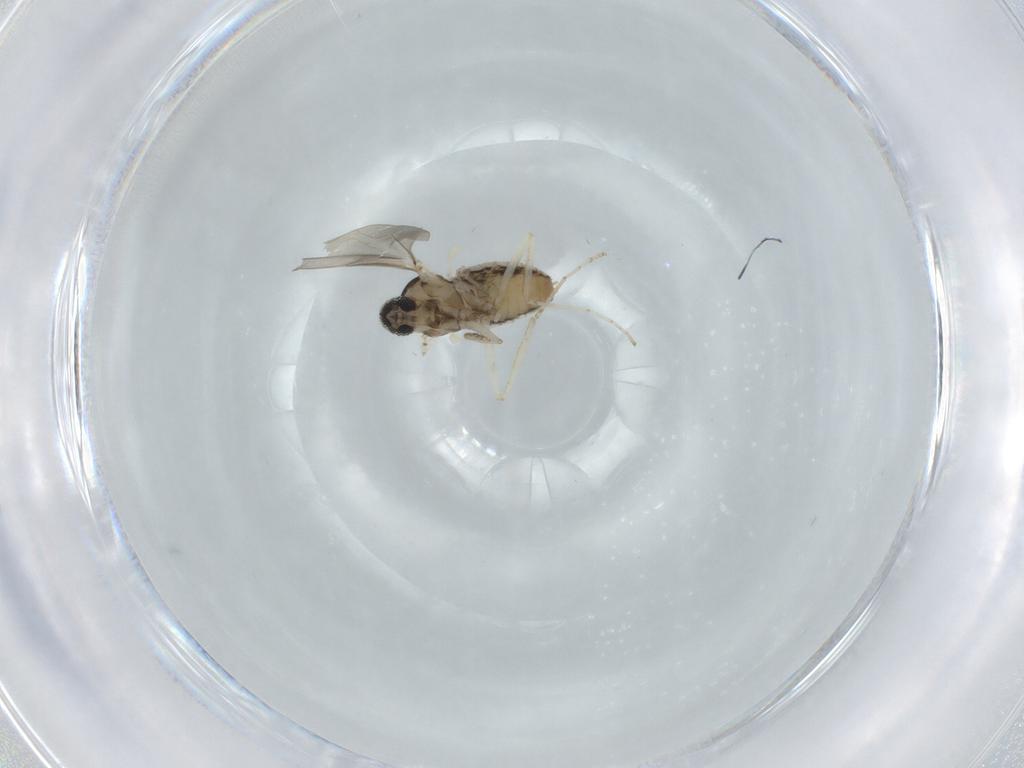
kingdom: Animalia
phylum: Arthropoda
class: Insecta
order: Diptera
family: Cecidomyiidae
